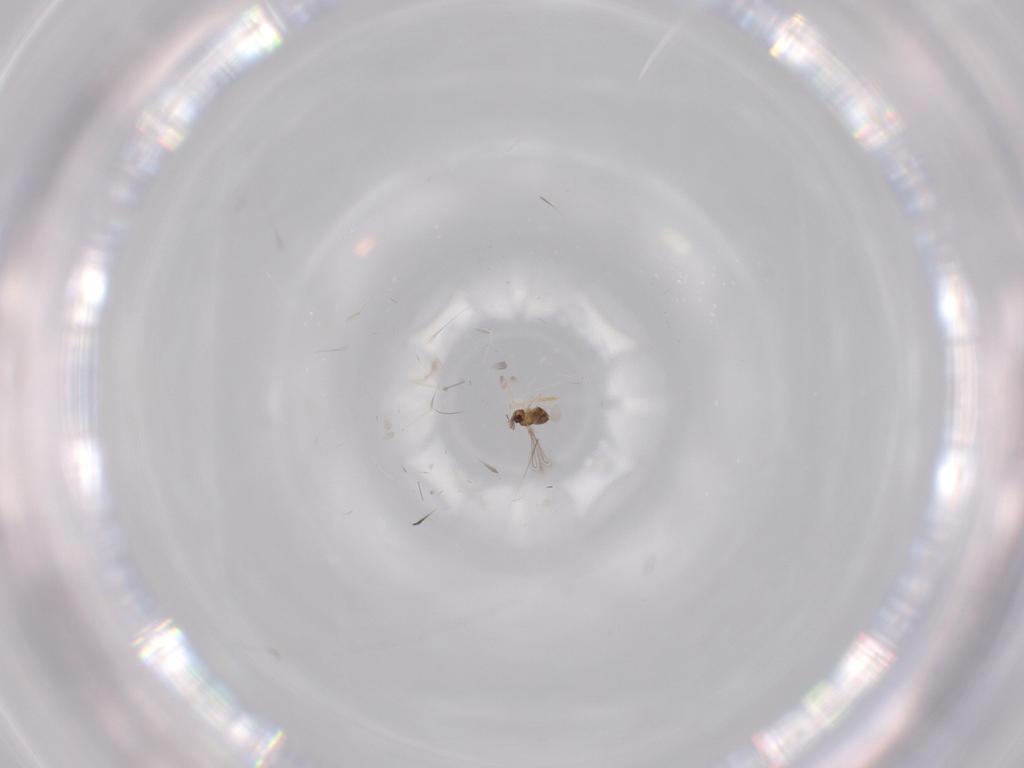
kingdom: Animalia
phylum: Arthropoda
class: Insecta
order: Hymenoptera
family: Mymaridae
